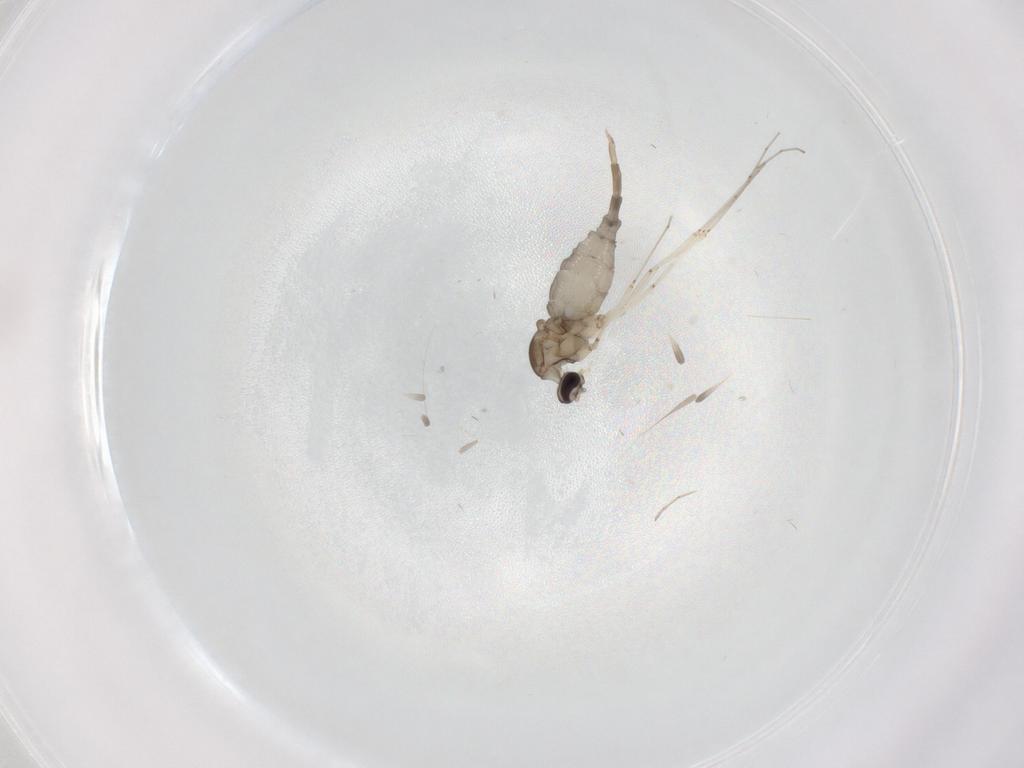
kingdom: Animalia
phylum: Arthropoda
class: Insecta
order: Diptera
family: Cecidomyiidae
